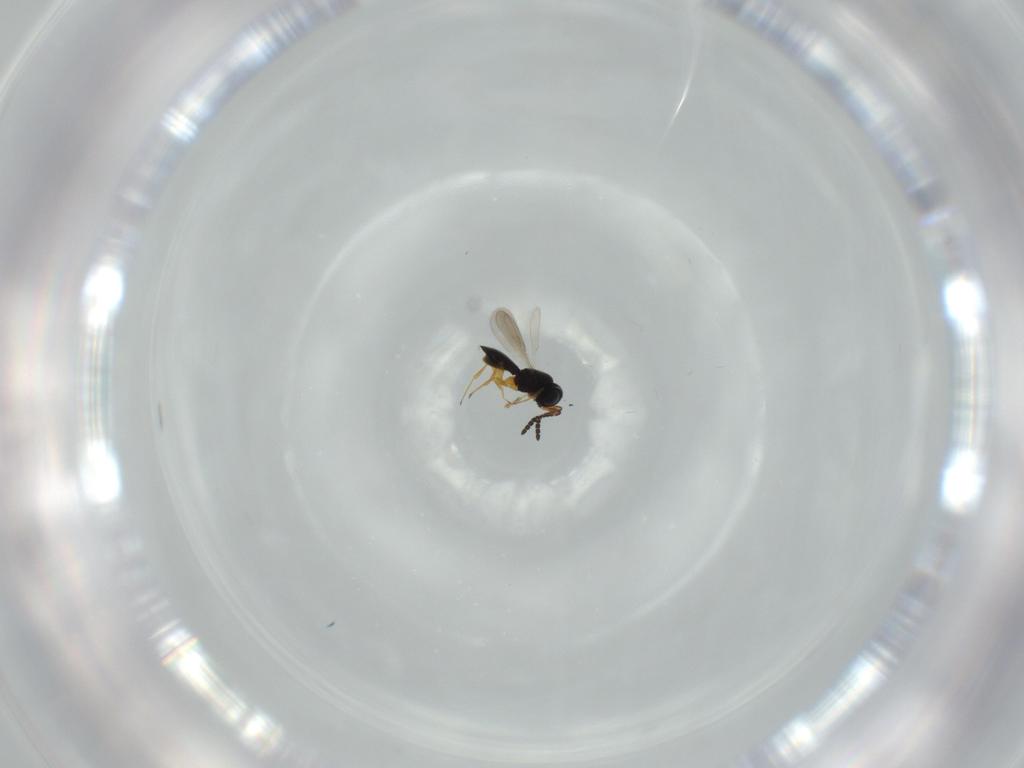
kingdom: Animalia
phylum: Arthropoda
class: Insecta
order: Hymenoptera
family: Scelionidae
